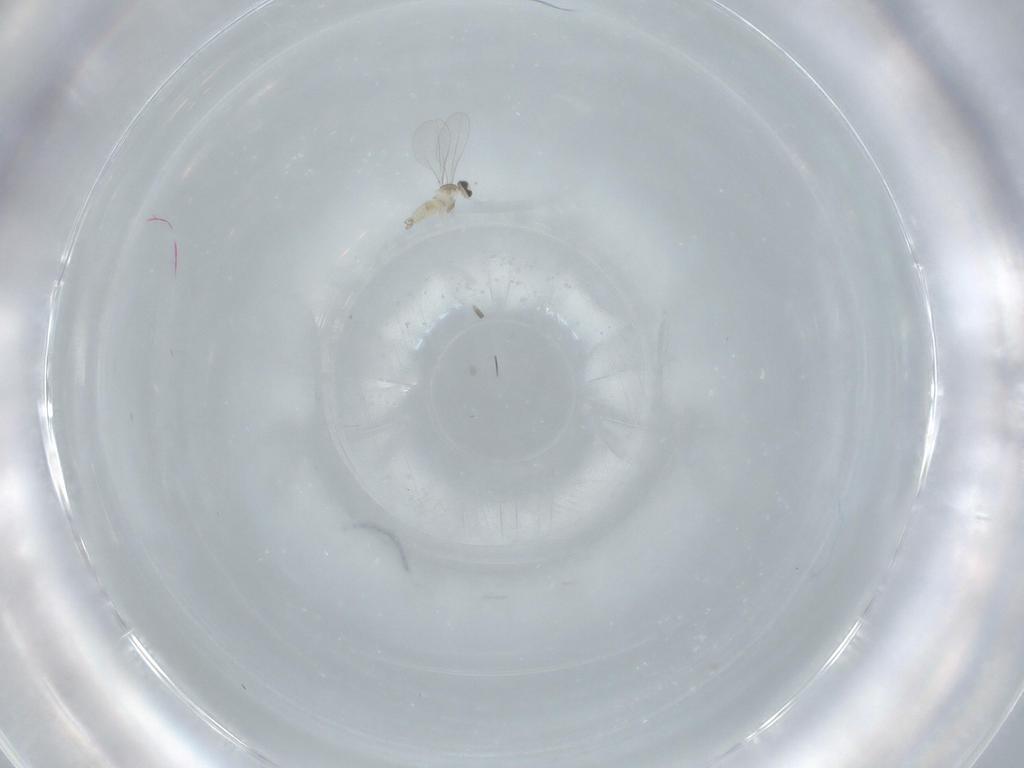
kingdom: Animalia
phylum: Arthropoda
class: Insecta
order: Diptera
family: Cecidomyiidae
